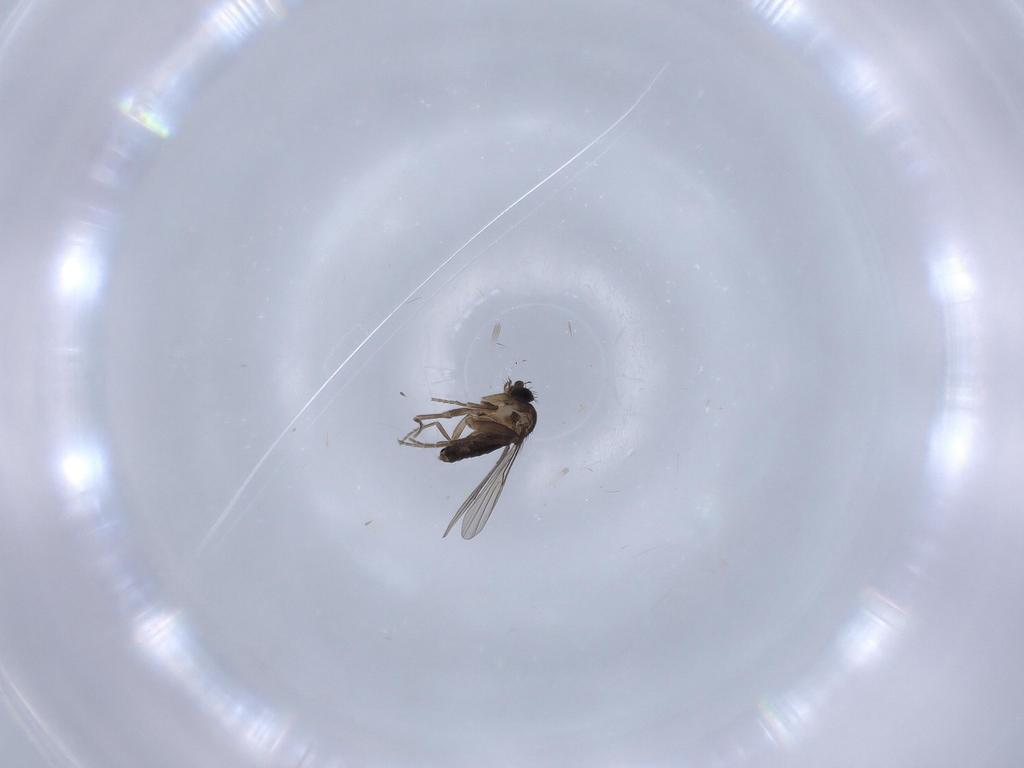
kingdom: Animalia
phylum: Arthropoda
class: Insecta
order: Diptera
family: Phoridae
